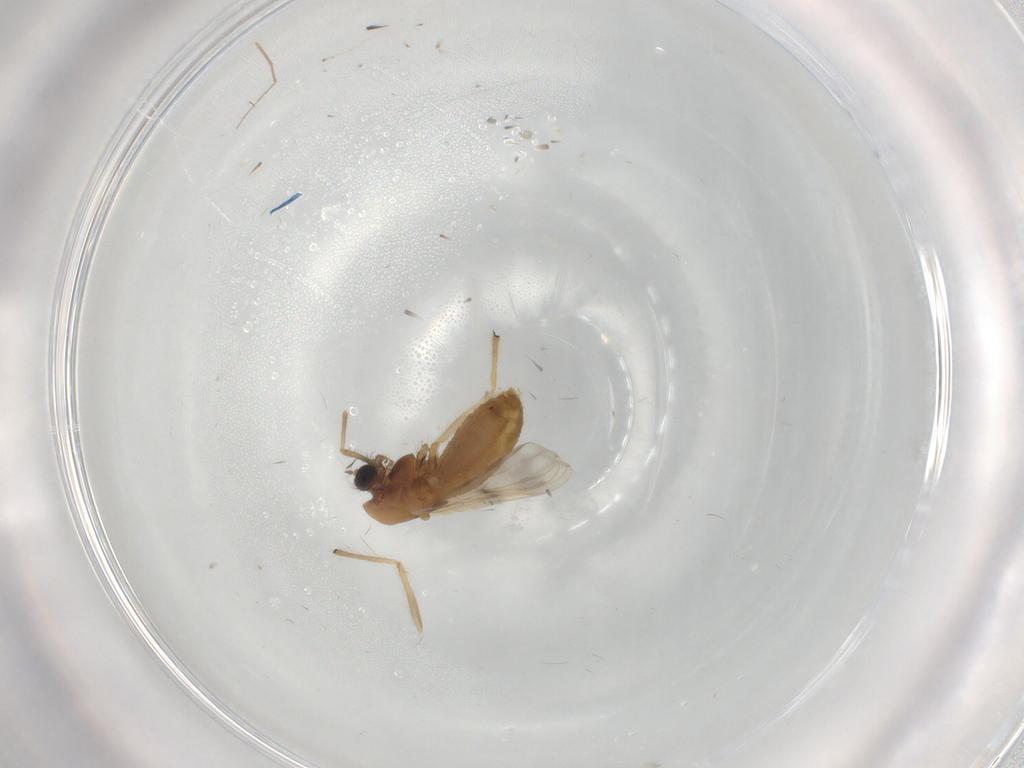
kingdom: Animalia
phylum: Arthropoda
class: Insecta
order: Diptera
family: Chironomidae
